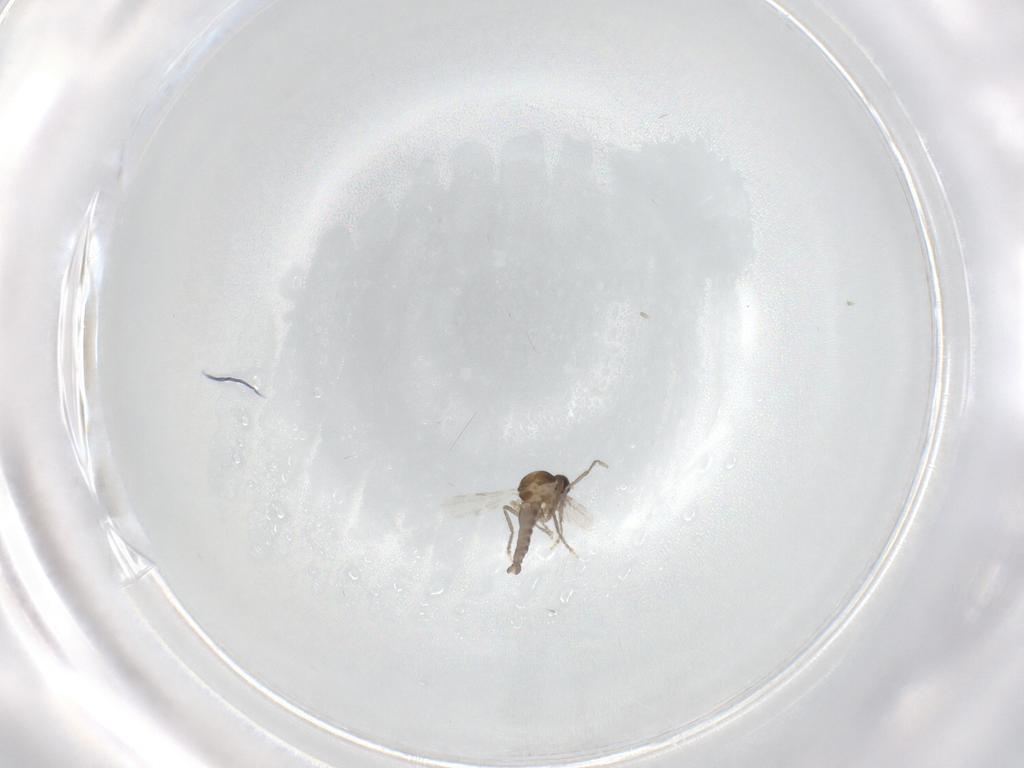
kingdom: Animalia
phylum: Arthropoda
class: Insecta
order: Diptera
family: Ceratopogonidae
